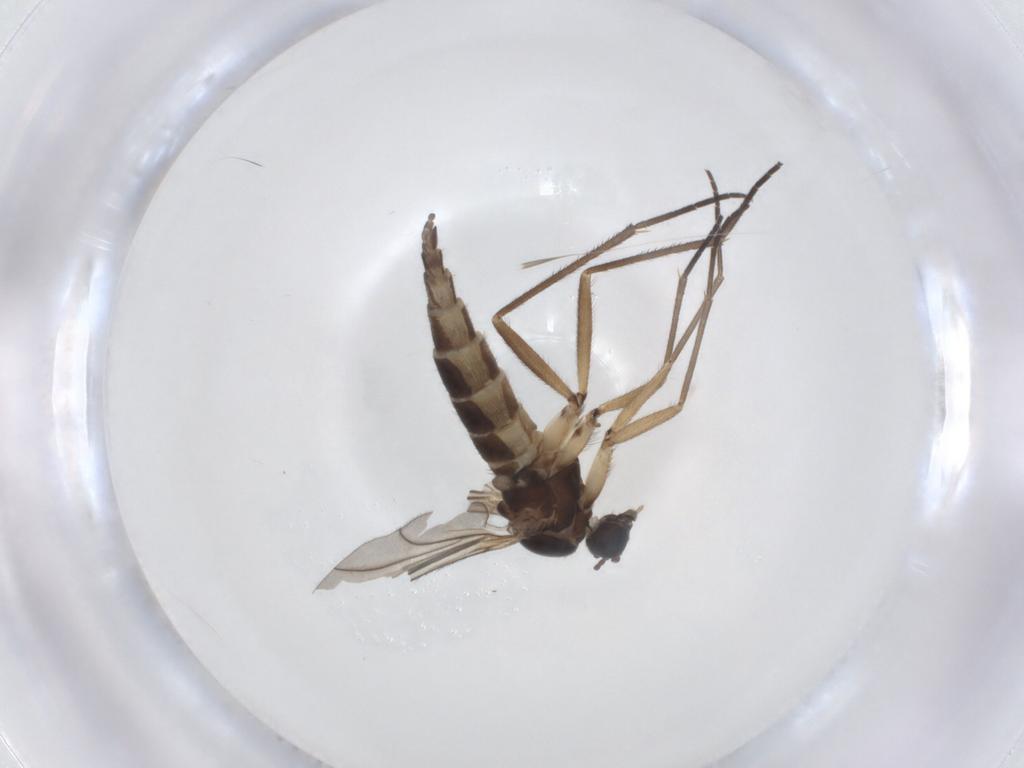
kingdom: Animalia
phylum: Arthropoda
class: Insecta
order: Diptera
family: Sciaridae
